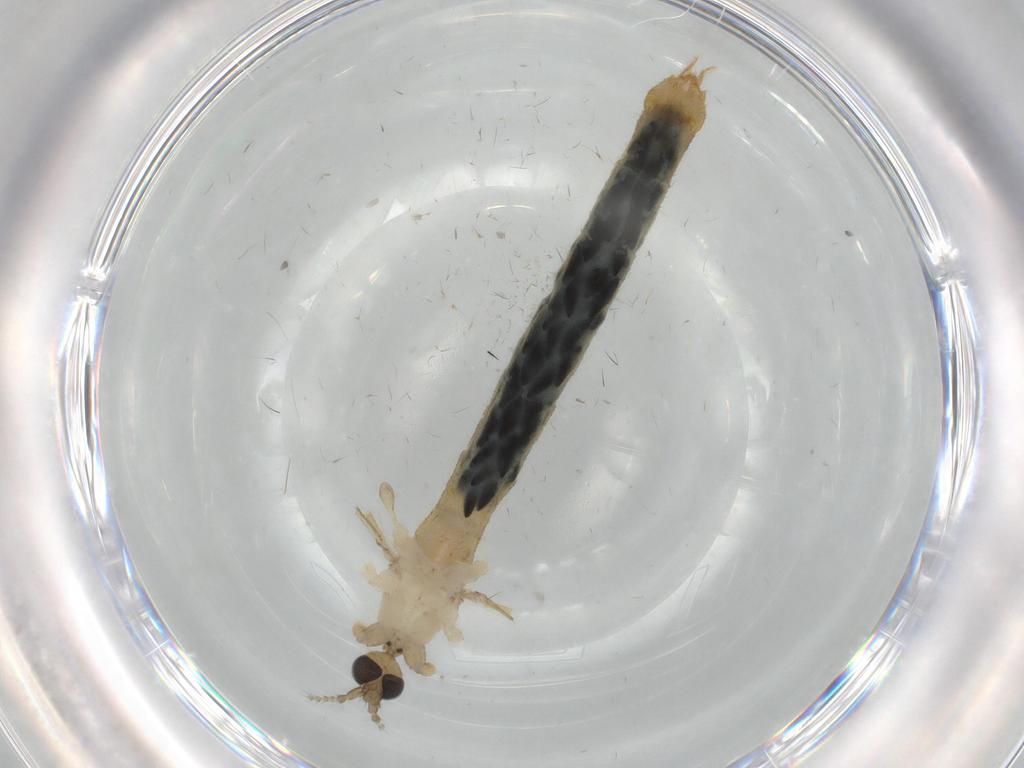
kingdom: Animalia
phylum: Arthropoda
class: Insecta
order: Diptera
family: Limoniidae
